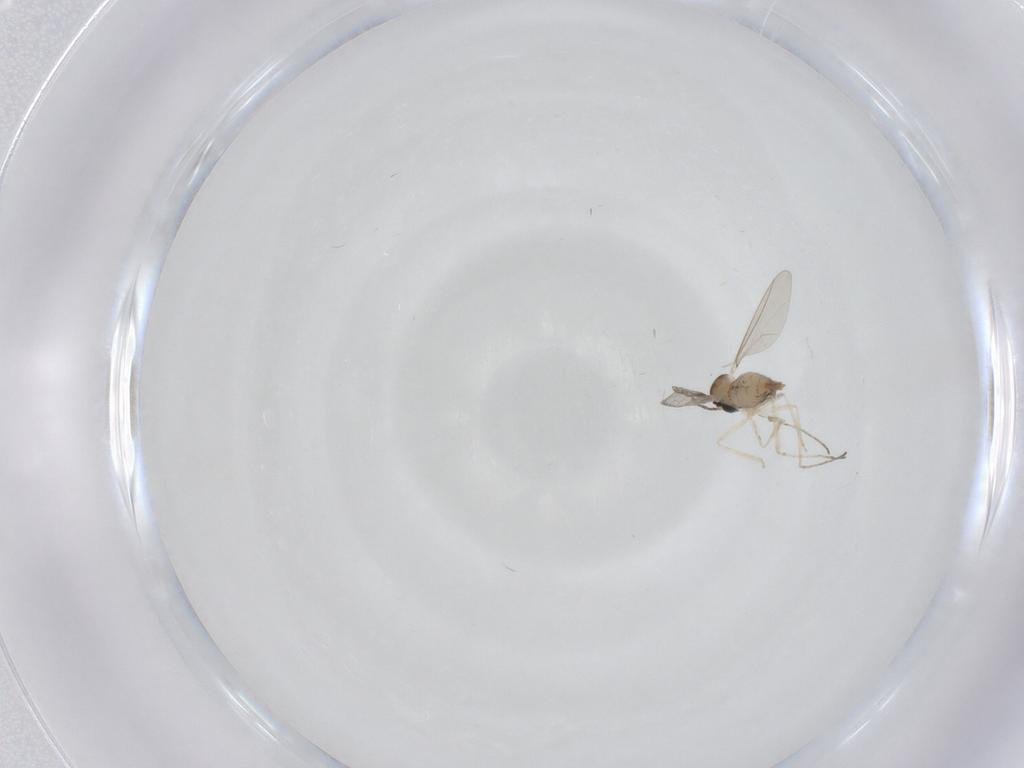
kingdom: Animalia
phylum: Arthropoda
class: Insecta
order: Diptera
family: Cecidomyiidae
